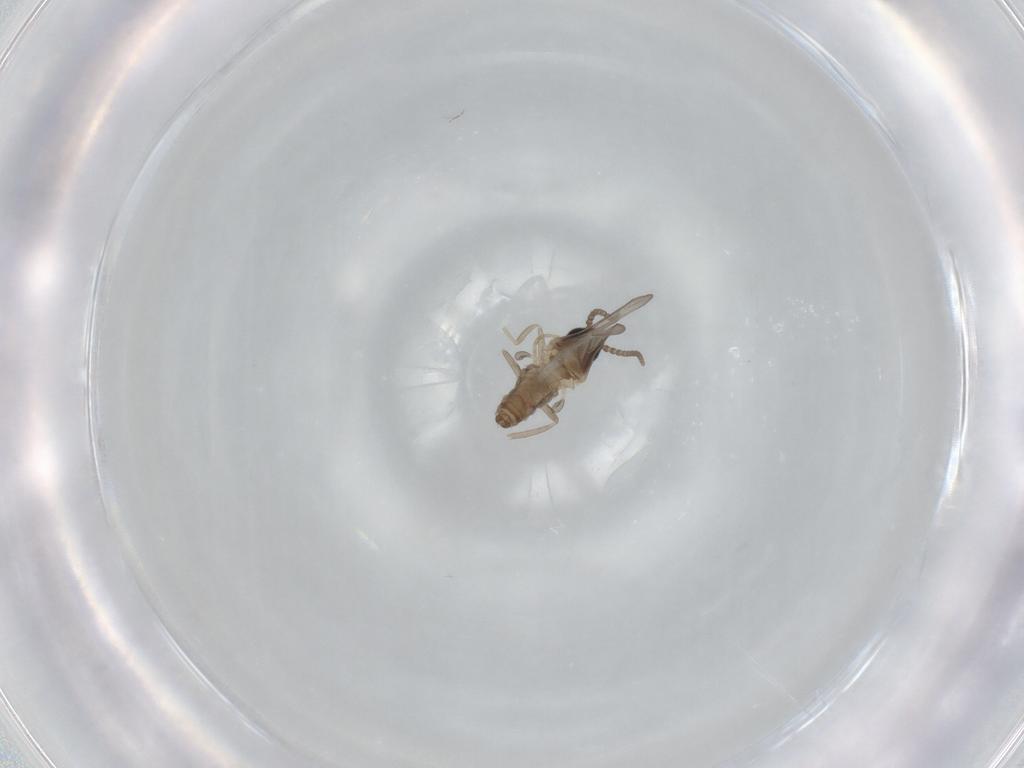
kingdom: Animalia
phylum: Arthropoda
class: Insecta
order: Diptera
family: Cecidomyiidae
